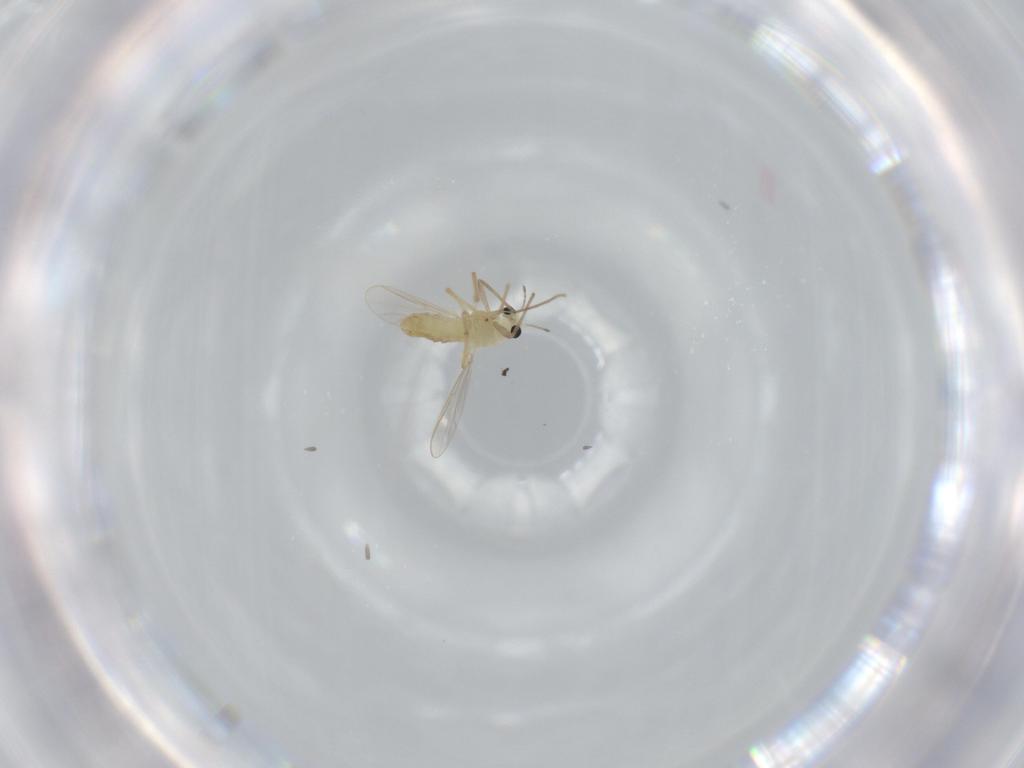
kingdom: Animalia
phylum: Arthropoda
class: Insecta
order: Diptera
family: Chironomidae
